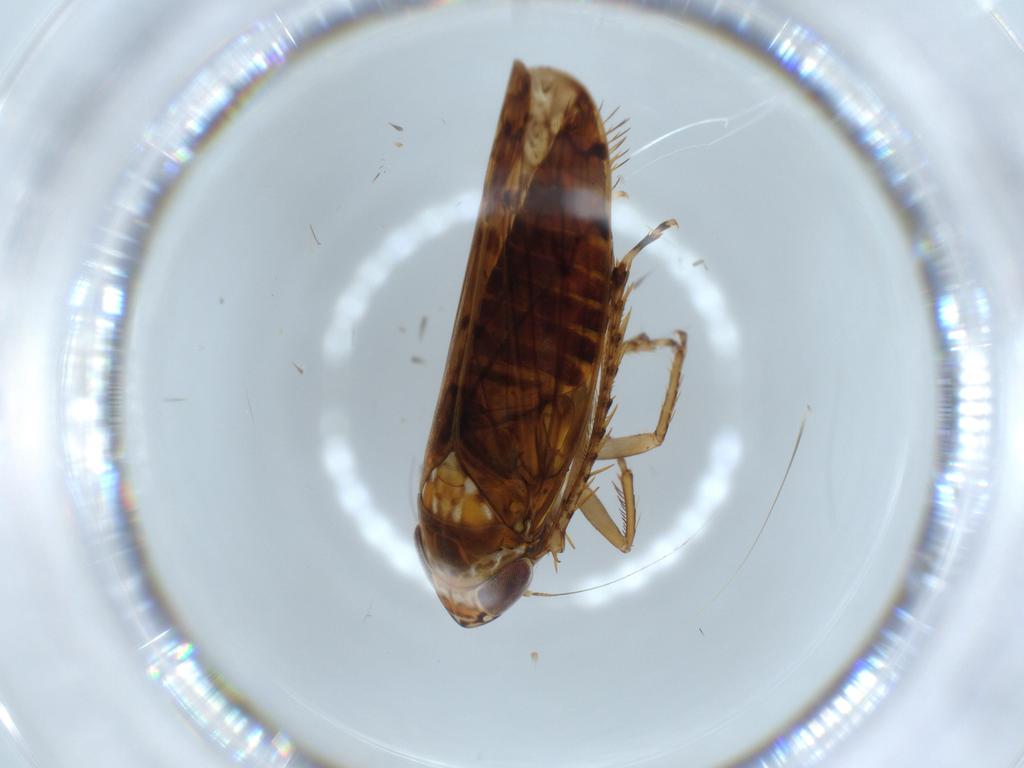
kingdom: Animalia
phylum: Arthropoda
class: Insecta
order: Hemiptera
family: Cicadellidae
